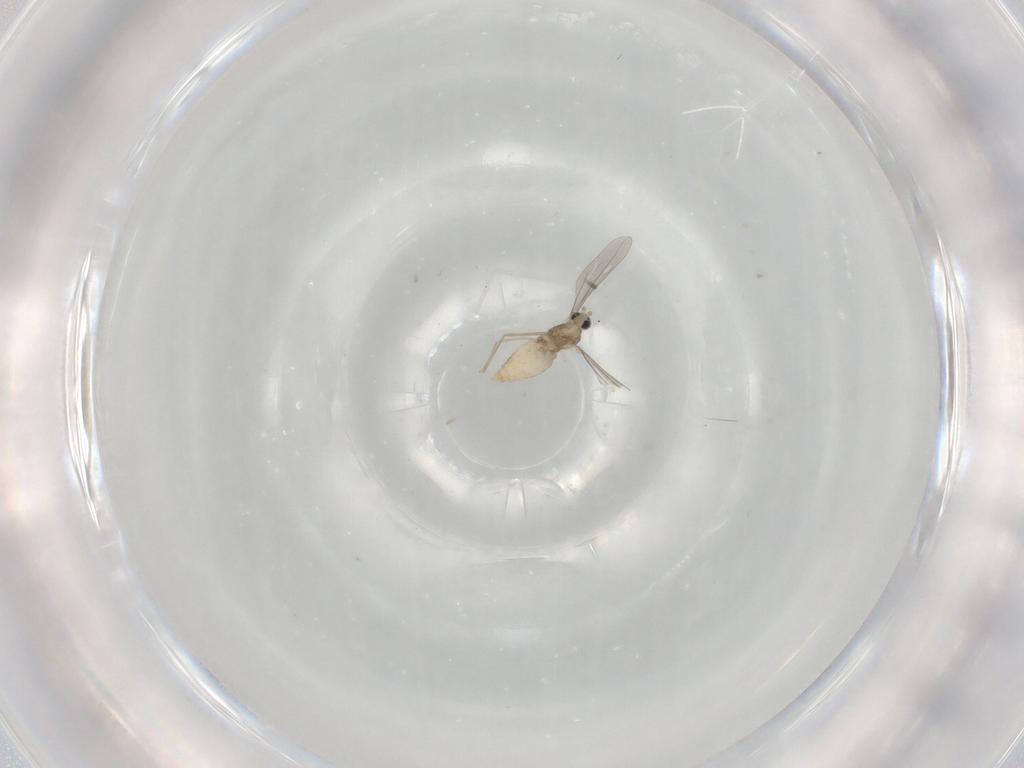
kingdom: Animalia
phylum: Arthropoda
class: Insecta
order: Diptera
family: Cecidomyiidae
